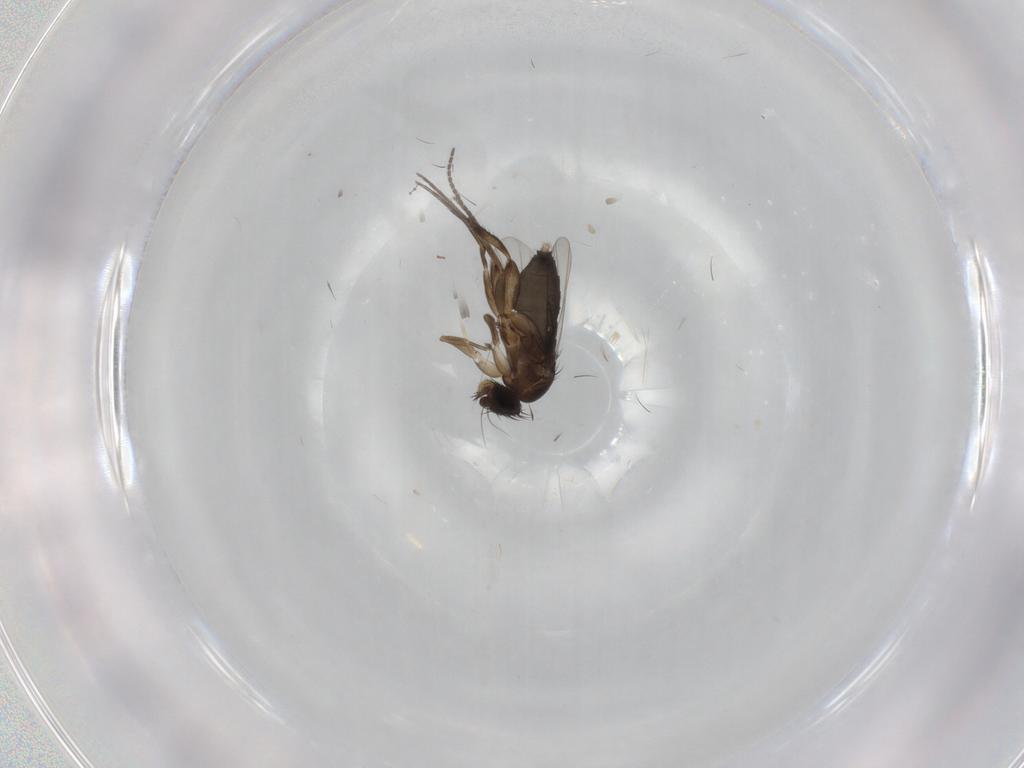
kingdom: Animalia
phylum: Arthropoda
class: Insecta
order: Diptera
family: Phoridae
